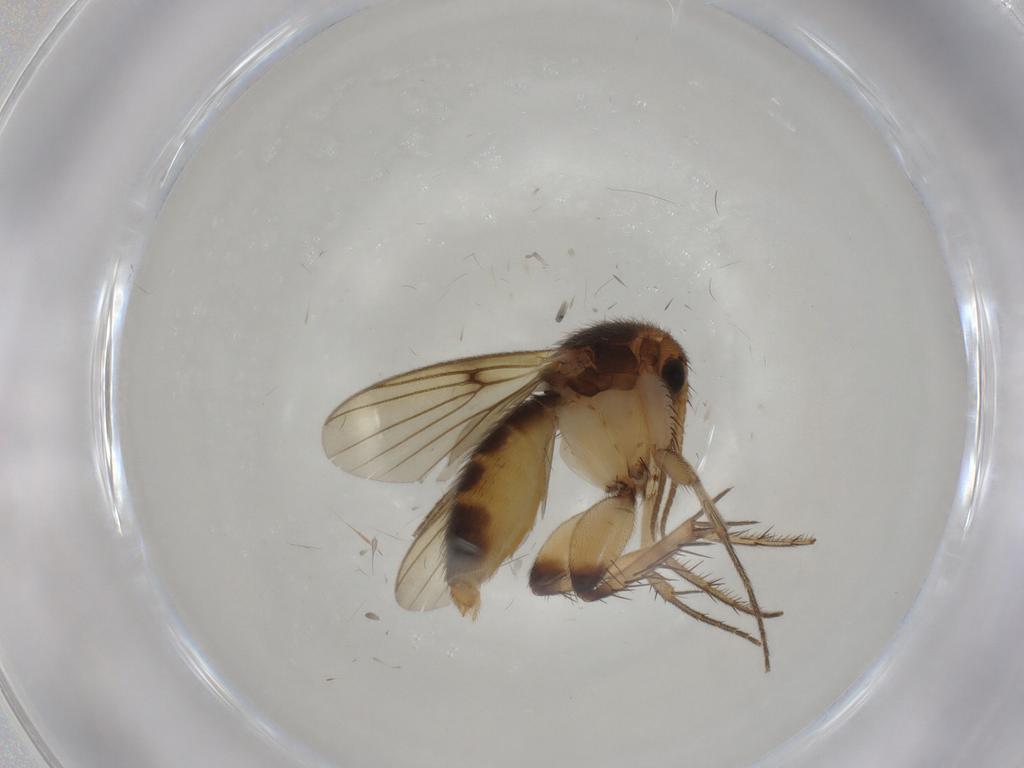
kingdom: Animalia
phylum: Arthropoda
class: Insecta
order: Diptera
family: Mycetophilidae
